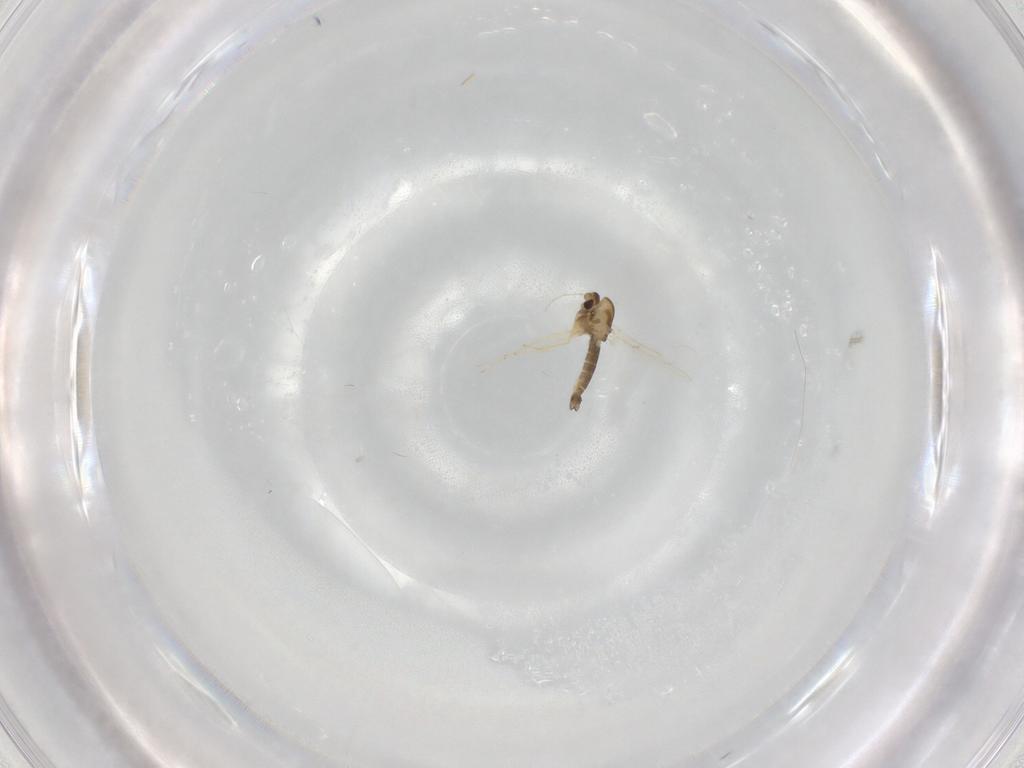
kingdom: Animalia
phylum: Arthropoda
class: Insecta
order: Diptera
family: Chironomidae
